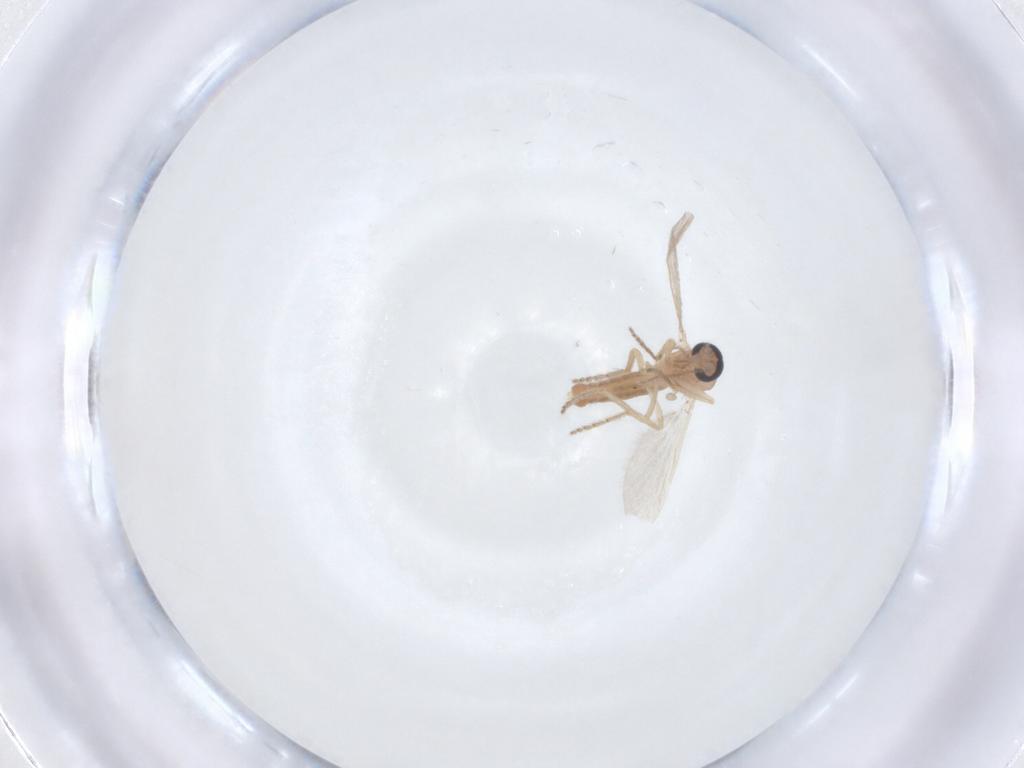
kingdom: Animalia
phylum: Arthropoda
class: Insecta
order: Diptera
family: Ceratopogonidae
